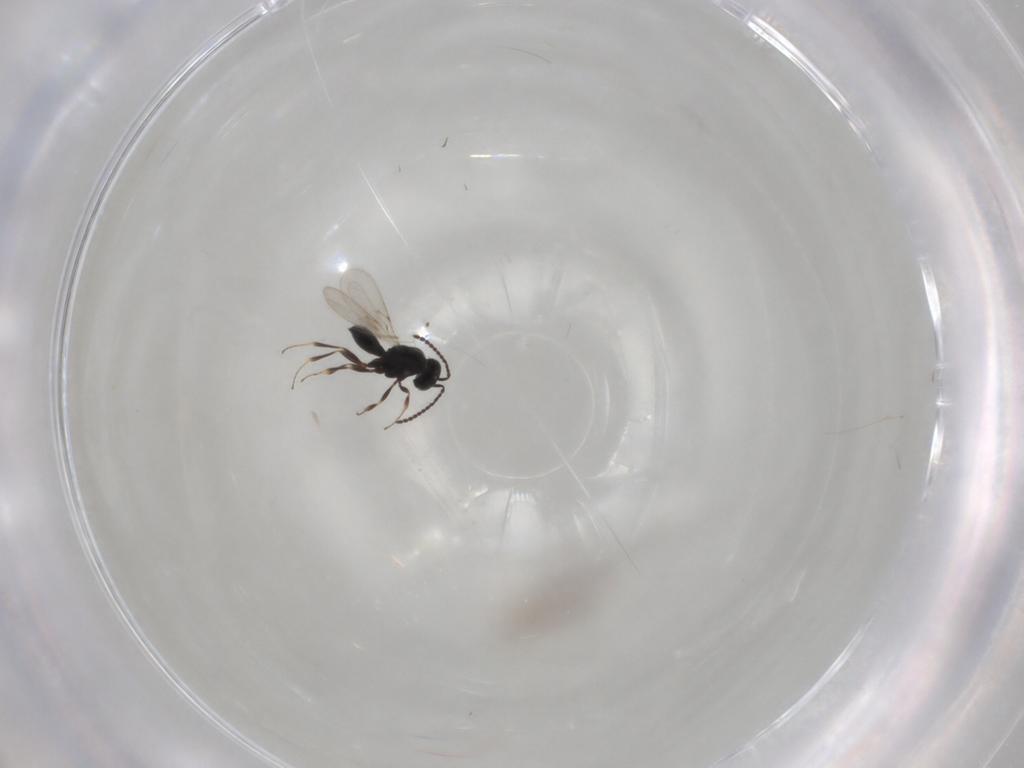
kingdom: Animalia
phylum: Arthropoda
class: Insecta
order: Hymenoptera
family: Scelionidae
